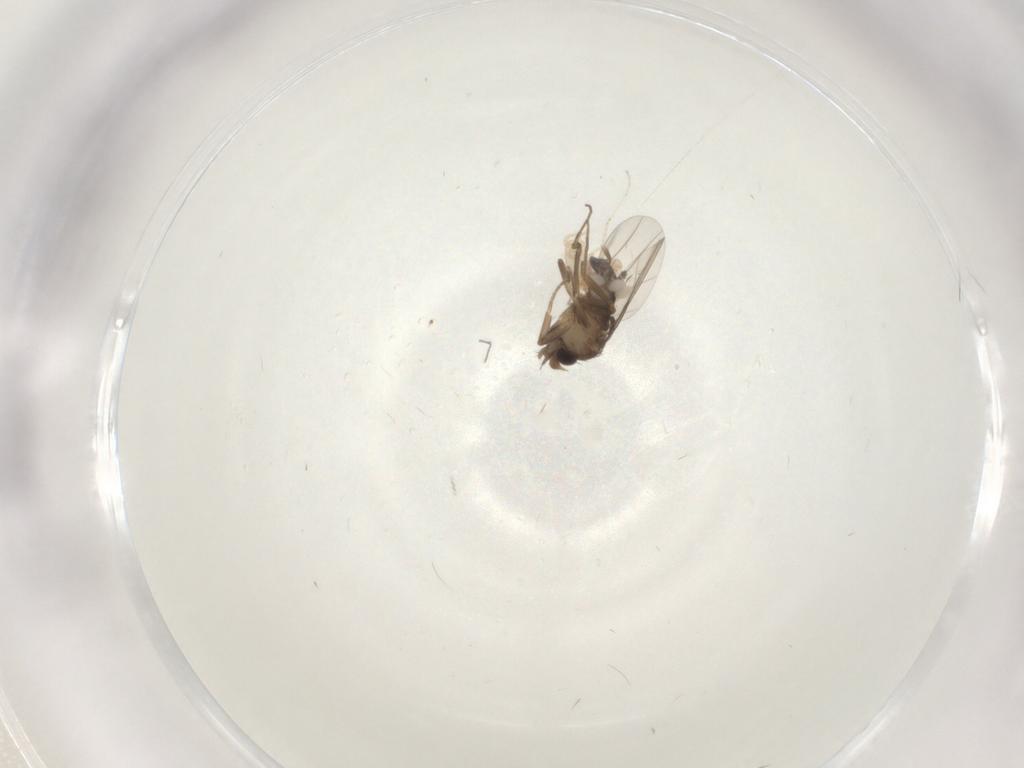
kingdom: Animalia
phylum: Arthropoda
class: Insecta
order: Diptera
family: Phoridae
